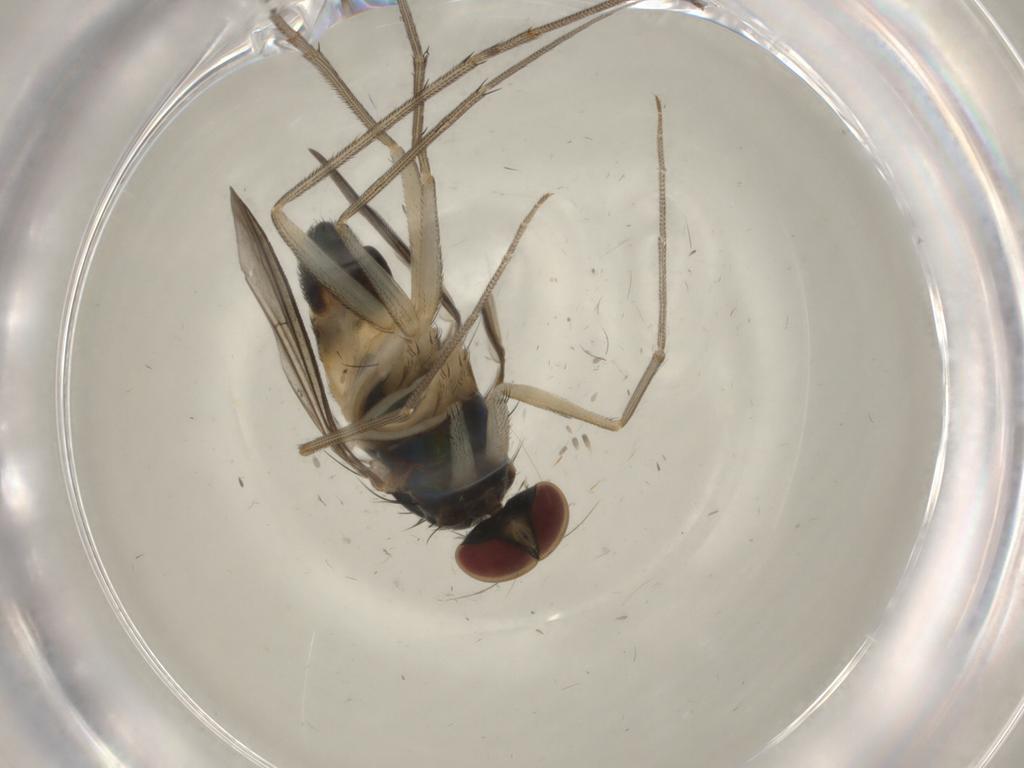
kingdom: Animalia
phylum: Arthropoda
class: Insecta
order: Diptera
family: Dolichopodidae
